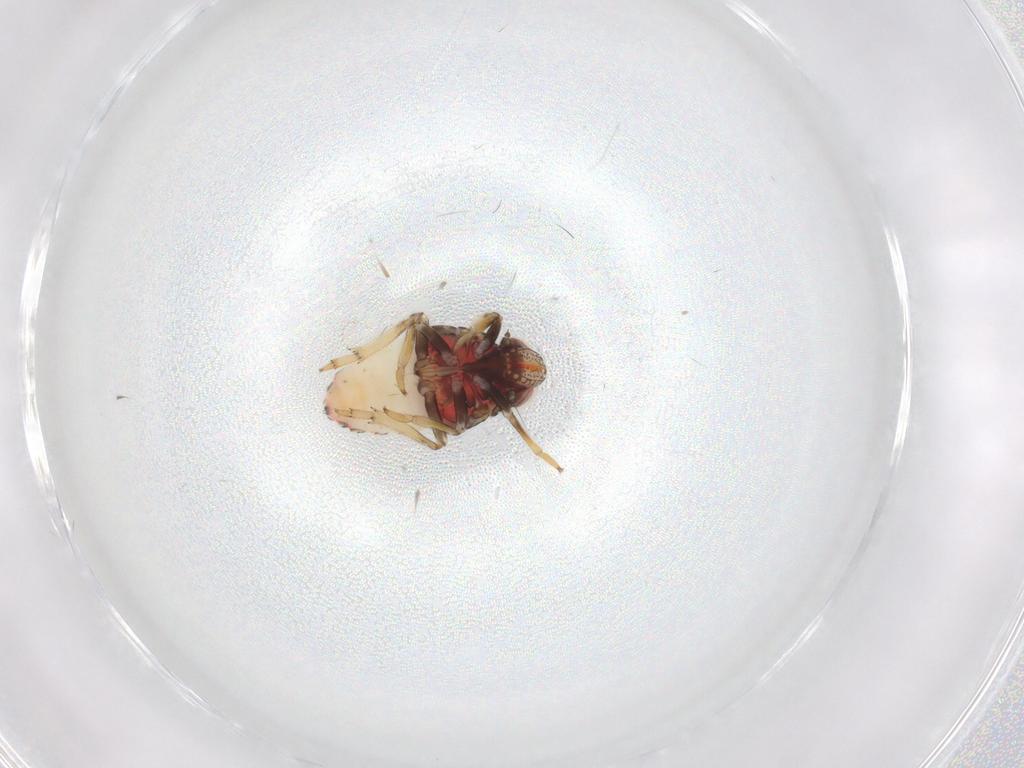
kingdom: Animalia
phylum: Arthropoda
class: Insecta
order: Hemiptera
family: Issidae
